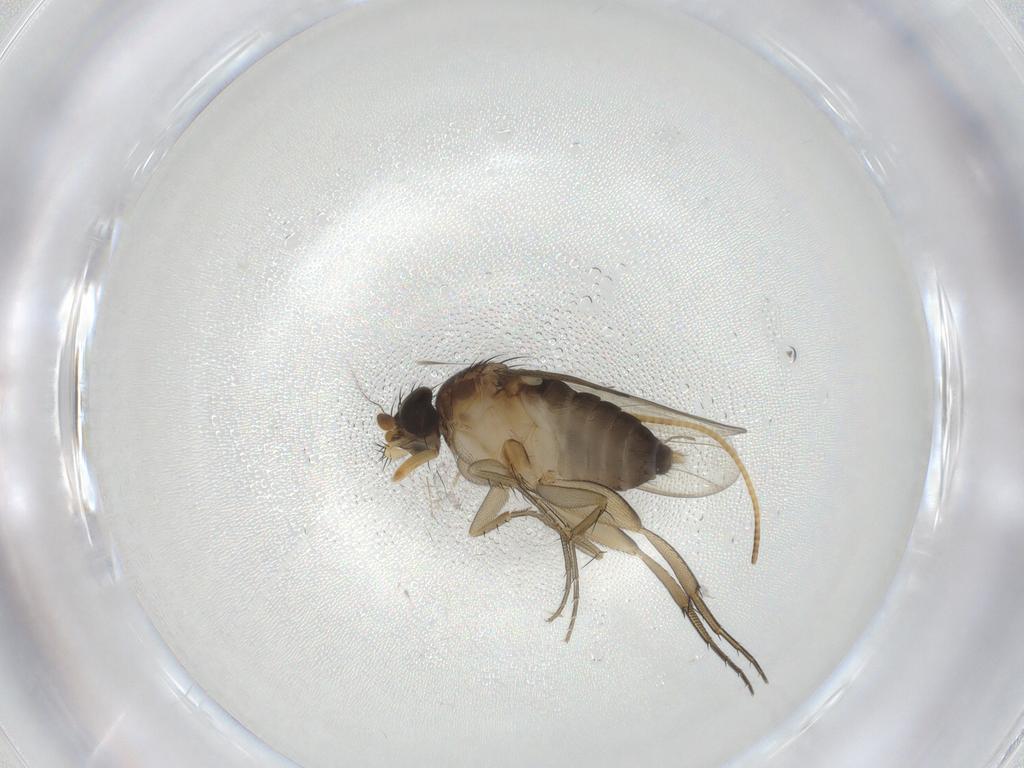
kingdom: Animalia
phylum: Arthropoda
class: Insecta
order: Diptera
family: Phoridae
